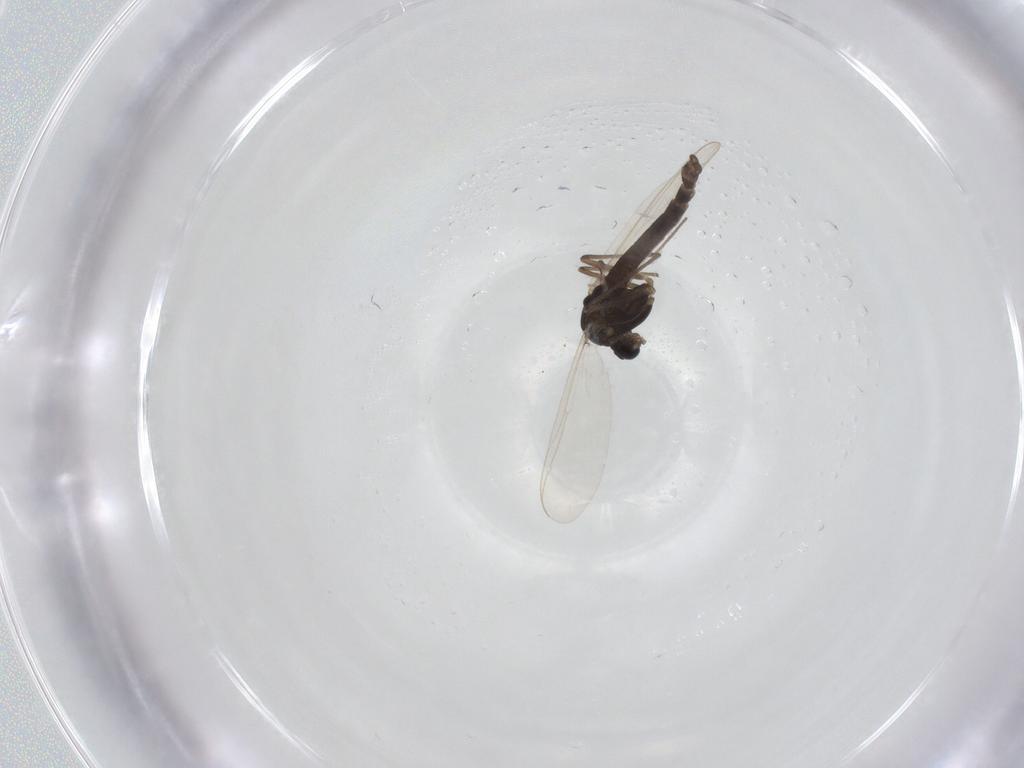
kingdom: Animalia
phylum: Arthropoda
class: Insecta
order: Diptera
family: Chironomidae
